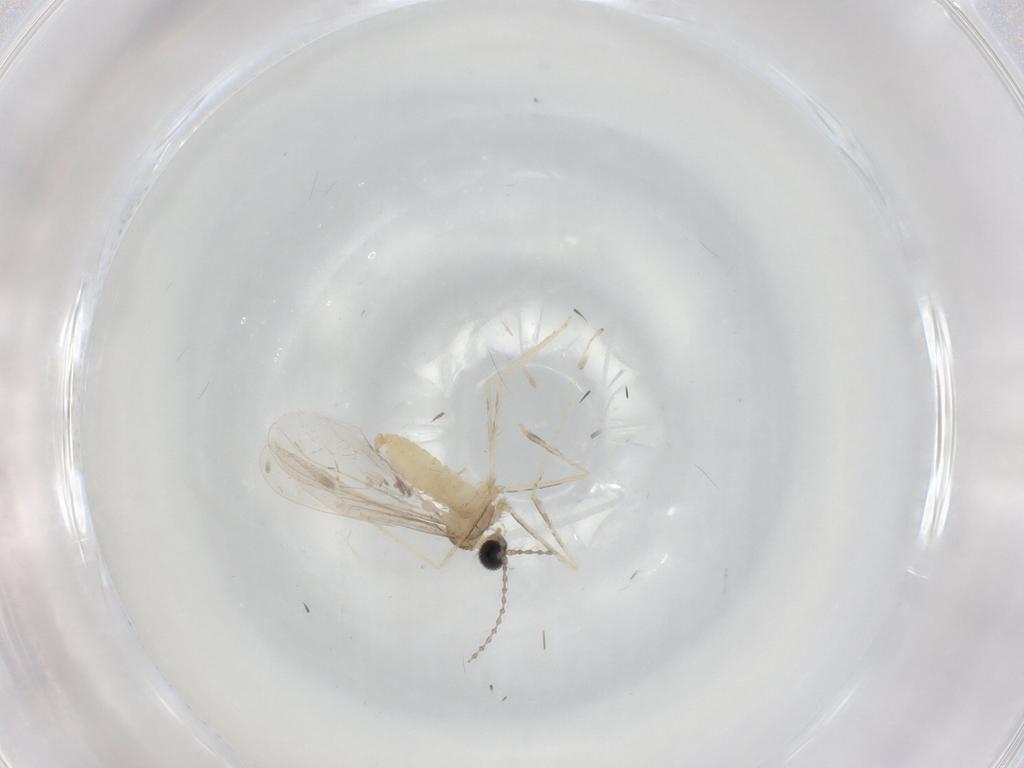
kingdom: Animalia
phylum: Arthropoda
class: Insecta
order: Diptera
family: Cecidomyiidae
